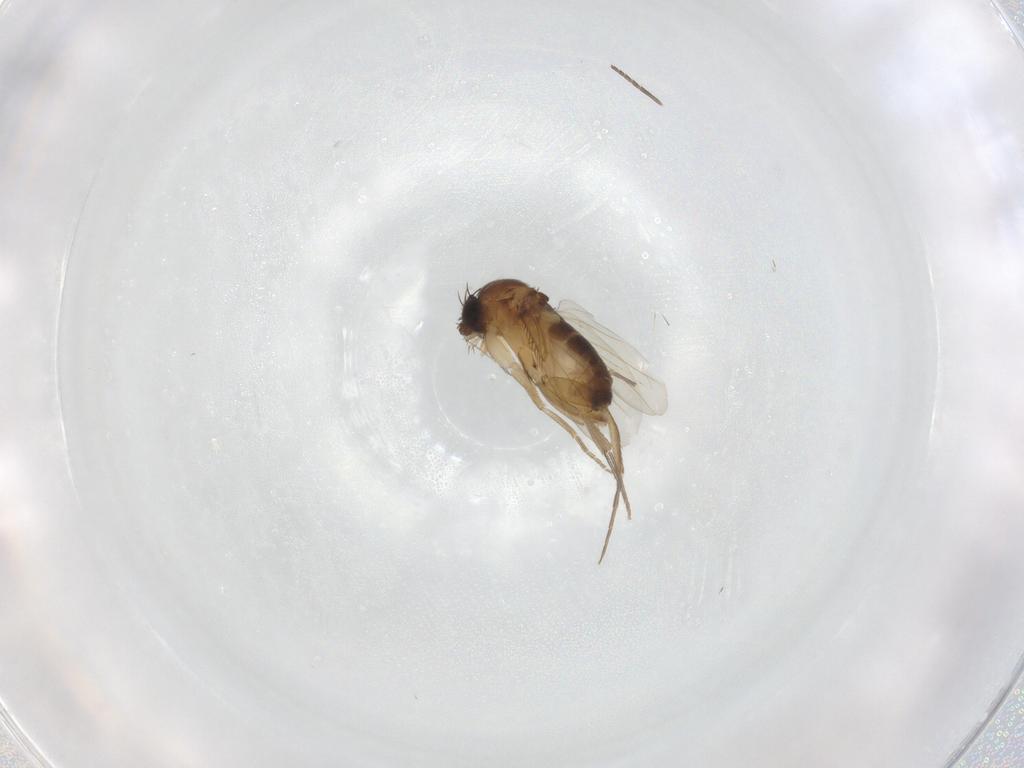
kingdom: Animalia
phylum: Arthropoda
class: Insecta
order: Diptera
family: Phoridae
